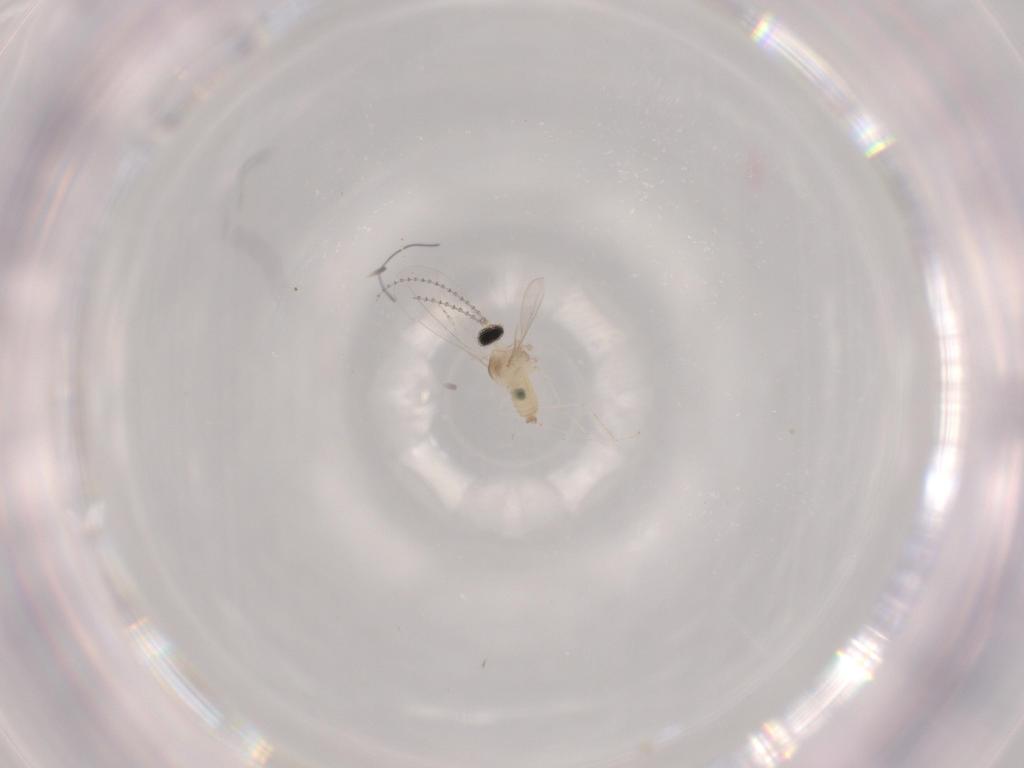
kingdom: Animalia
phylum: Arthropoda
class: Insecta
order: Diptera
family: Cecidomyiidae
